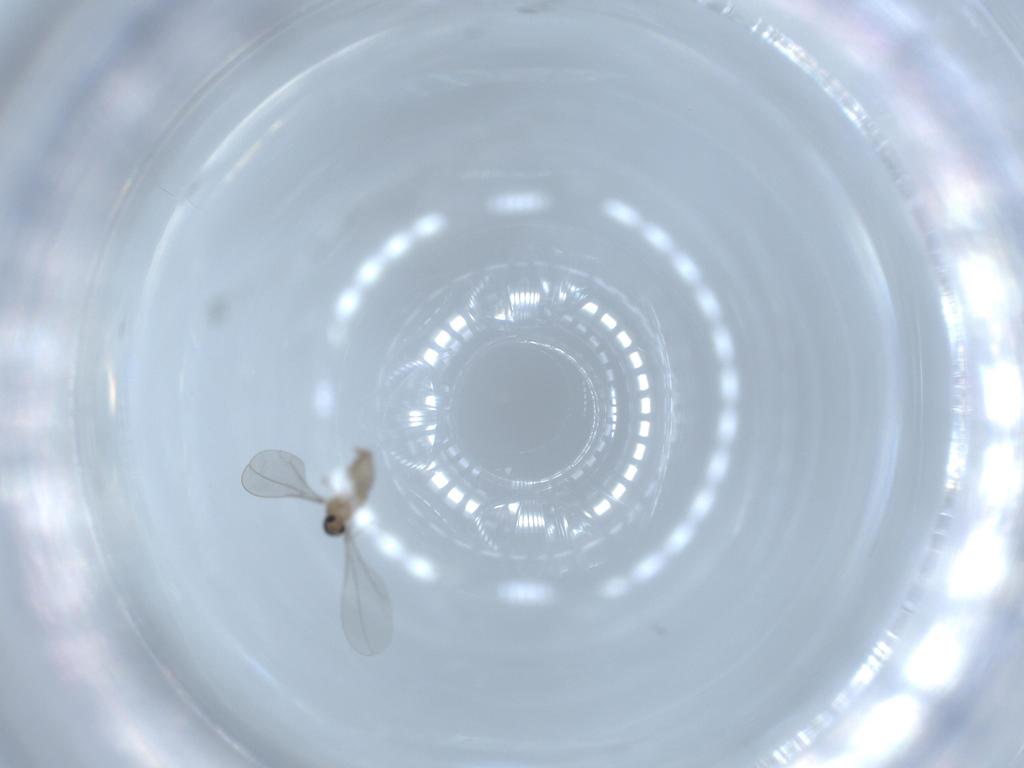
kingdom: Animalia
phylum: Arthropoda
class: Insecta
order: Diptera
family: Cecidomyiidae
